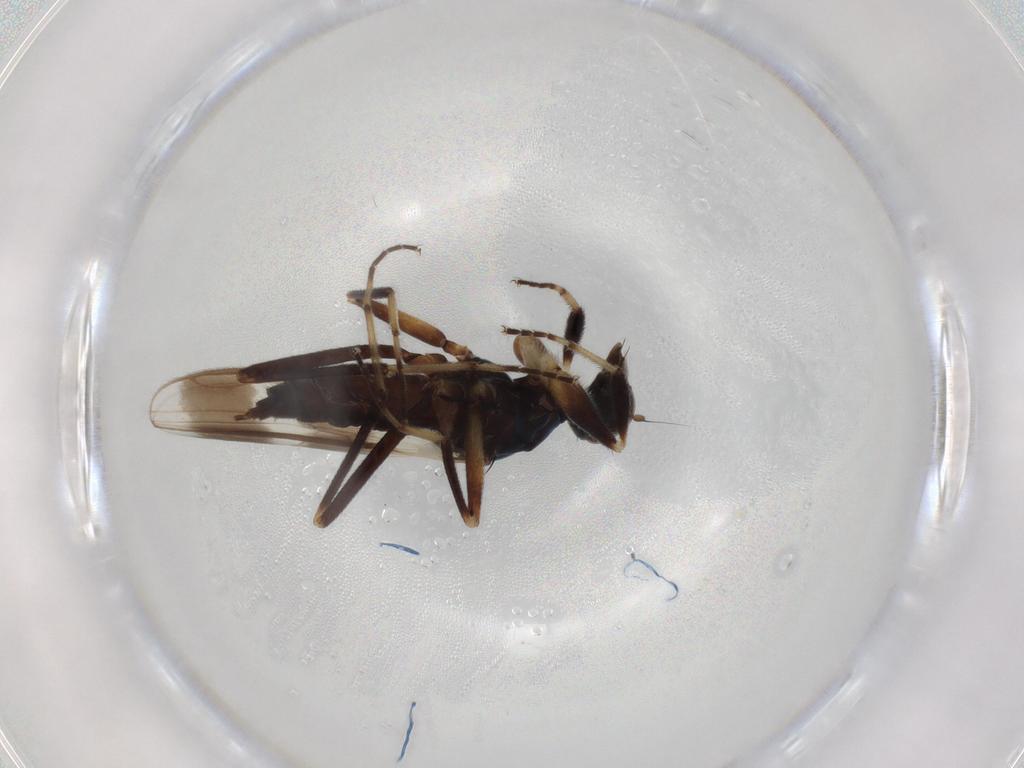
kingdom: Animalia
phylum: Arthropoda
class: Insecta
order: Diptera
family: Hybotidae
